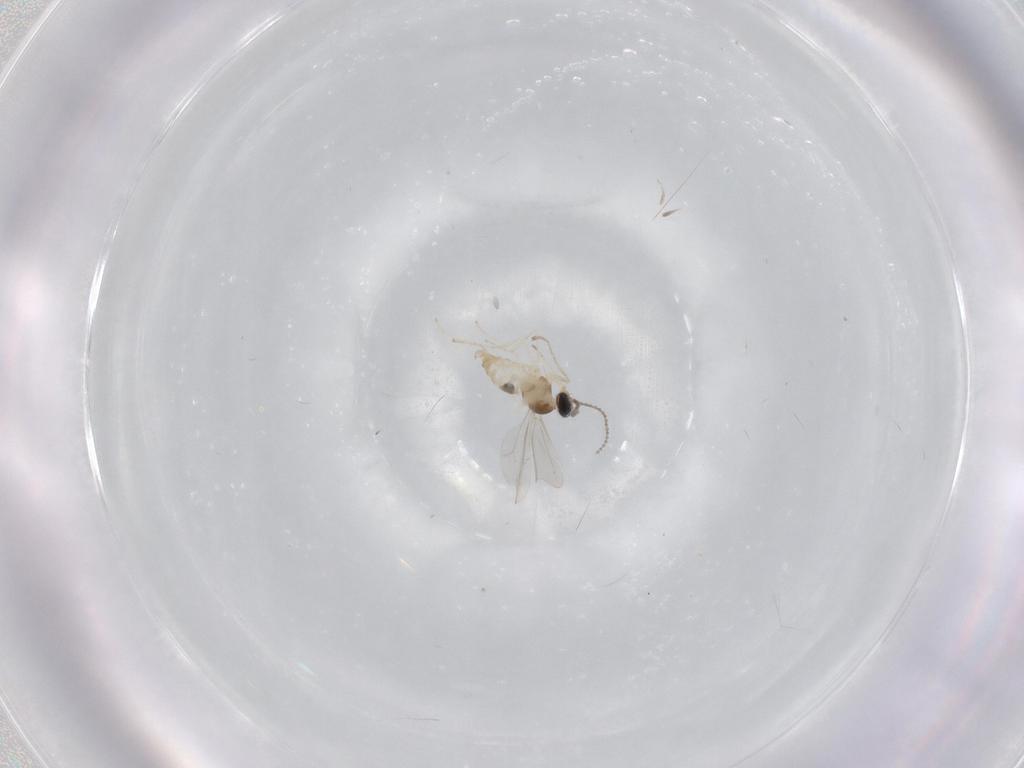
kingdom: Animalia
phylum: Arthropoda
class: Insecta
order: Diptera
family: Cecidomyiidae
